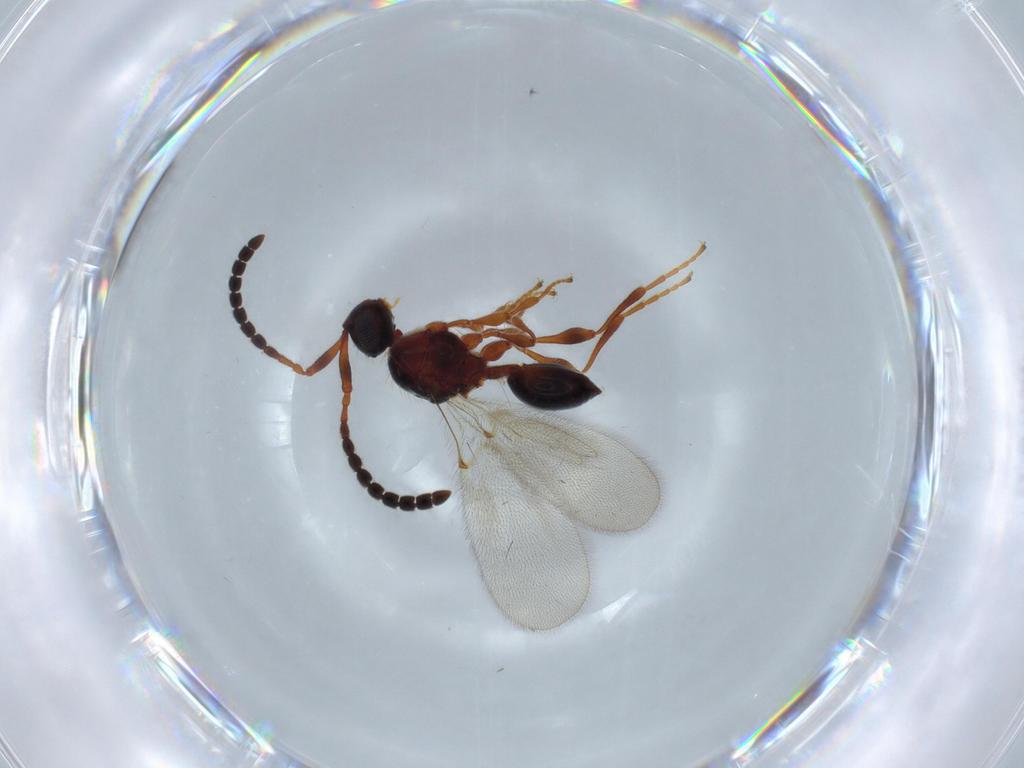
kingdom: Animalia
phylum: Arthropoda
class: Insecta
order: Hymenoptera
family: Diapriidae
